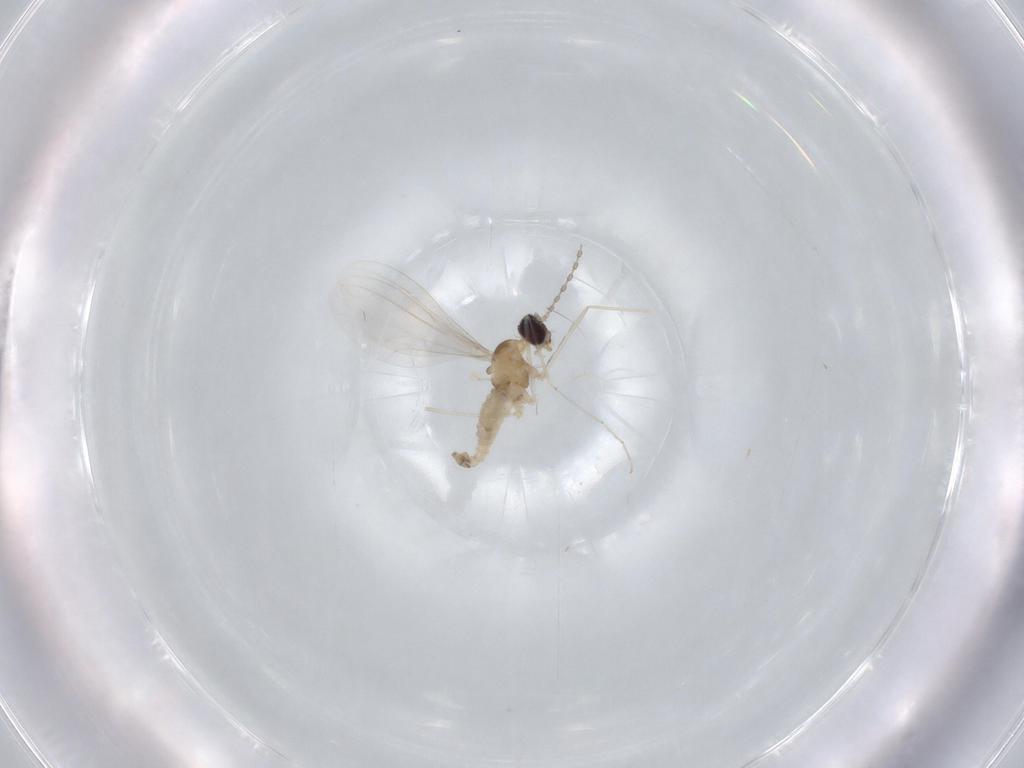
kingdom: Animalia
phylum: Arthropoda
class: Insecta
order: Diptera
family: Cecidomyiidae
